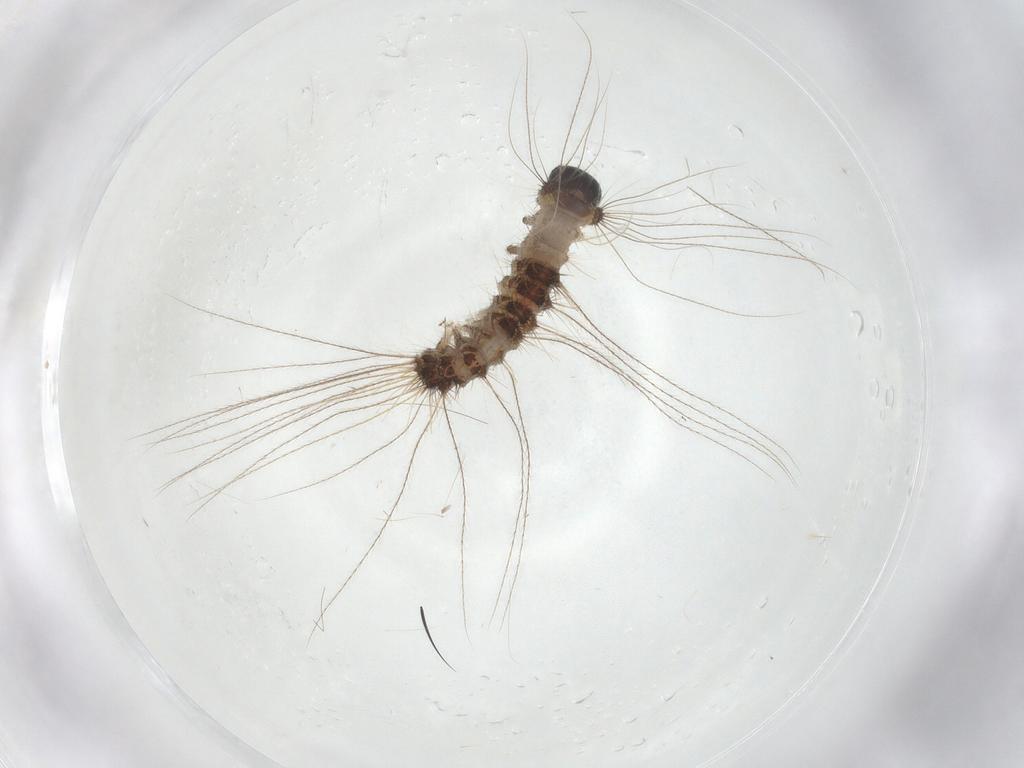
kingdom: Animalia
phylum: Arthropoda
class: Insecta
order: Lepidoptera
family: Erebidae
